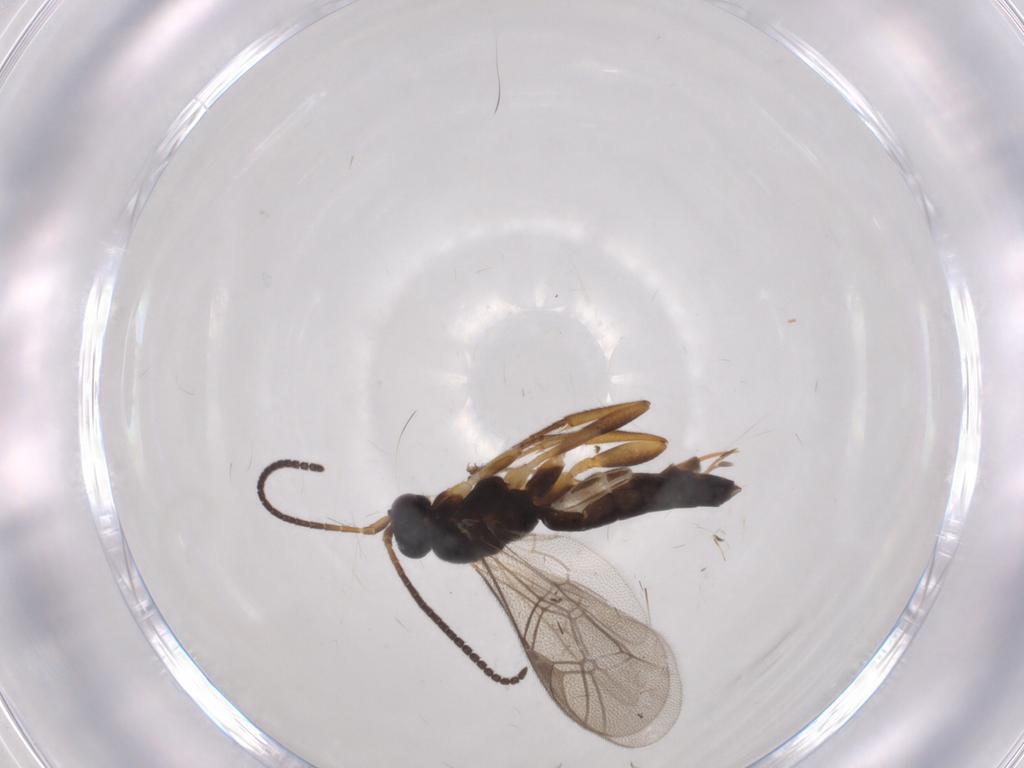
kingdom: Animalia
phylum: Arthropoda
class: Insecta
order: Hymenoptera
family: Ichneumonidae
